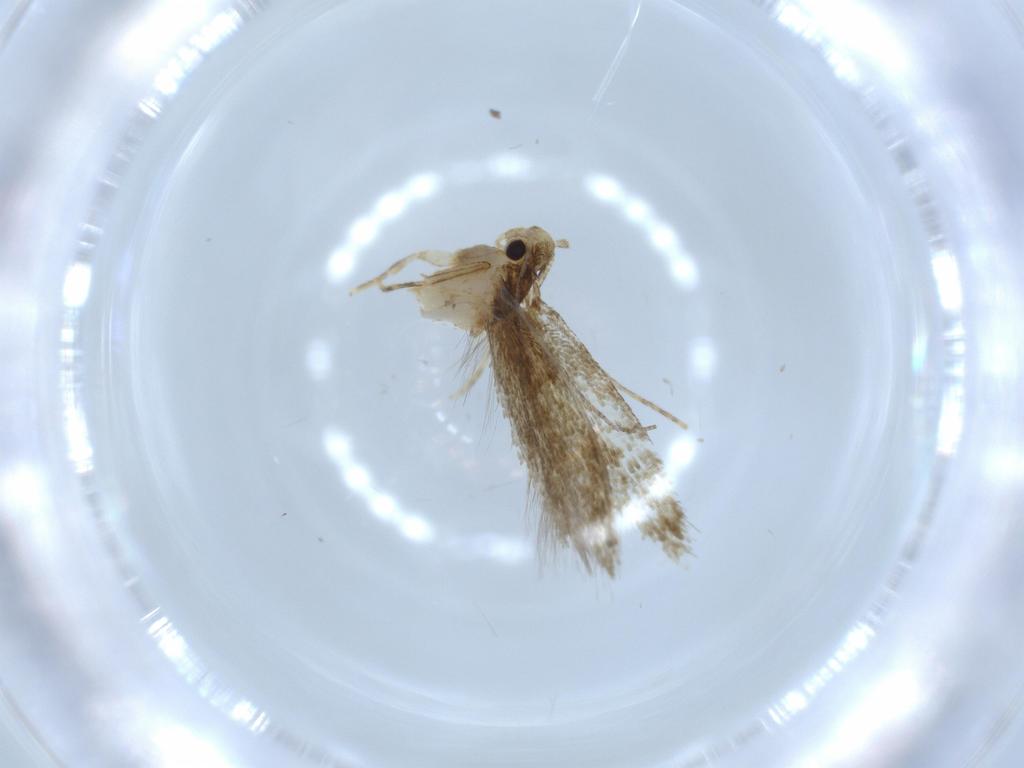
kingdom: Animalia
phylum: Arthropoda
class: Insecta
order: Lepidoptera
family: Tineidae
